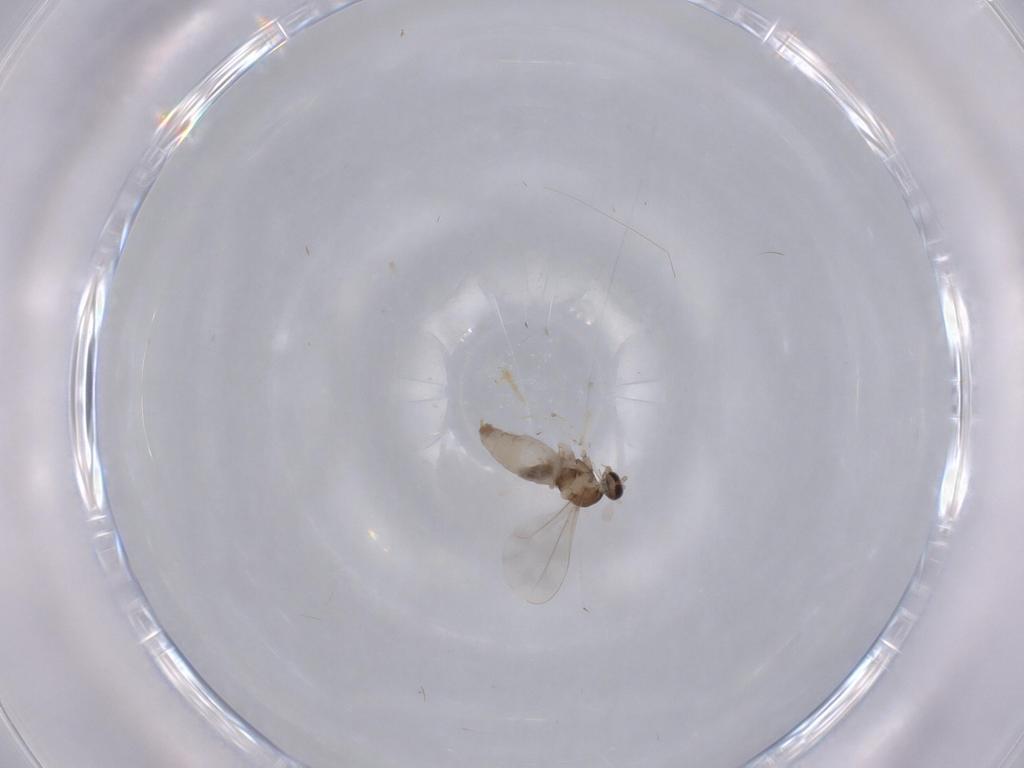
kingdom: Animalia
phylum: Arthropoda
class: Insecta
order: Diptera
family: Cecidomyiidae
